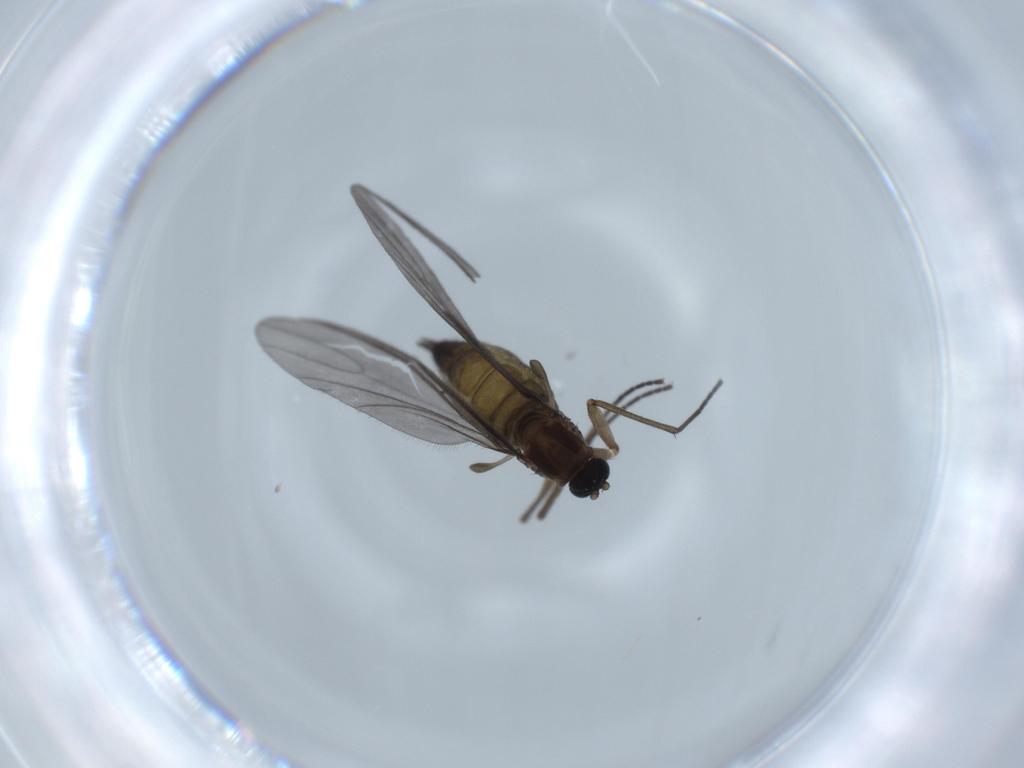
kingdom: Animalia
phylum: Arthropoda
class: Insecta
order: Diptera
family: Sciaridae
